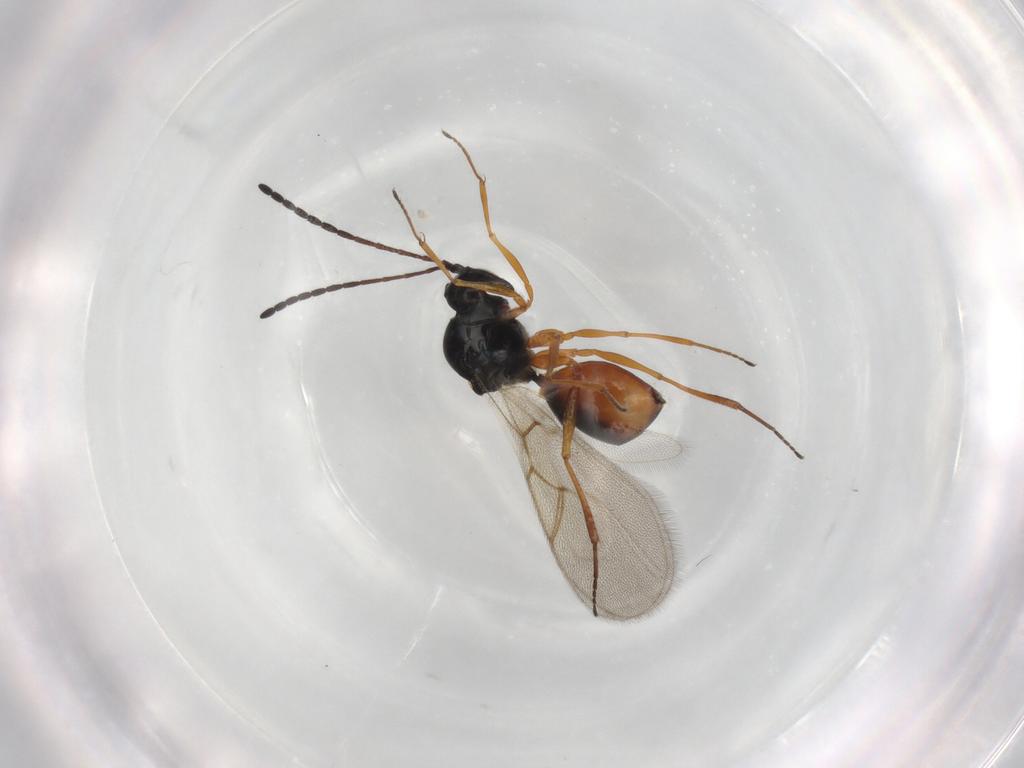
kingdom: Animalia
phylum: Arthropoda
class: Insecta
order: Hymenoptera
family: Figitidae
